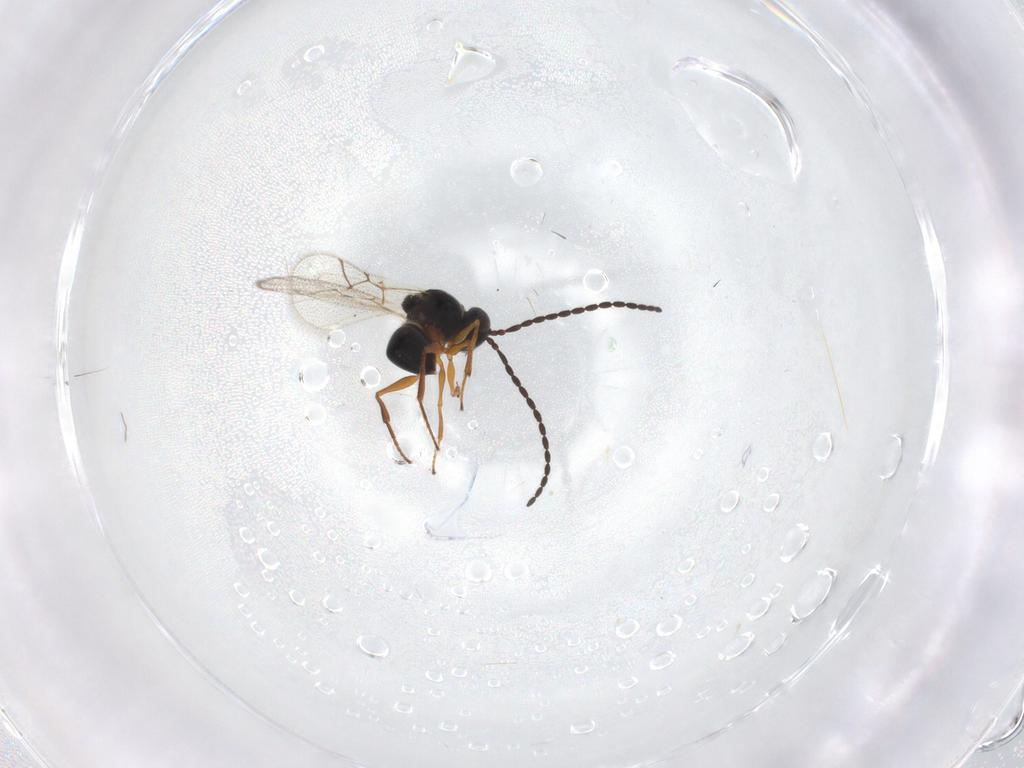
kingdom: Animalia
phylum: Arthropoda
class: Insecta
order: Hymenoptera
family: Figitidae
